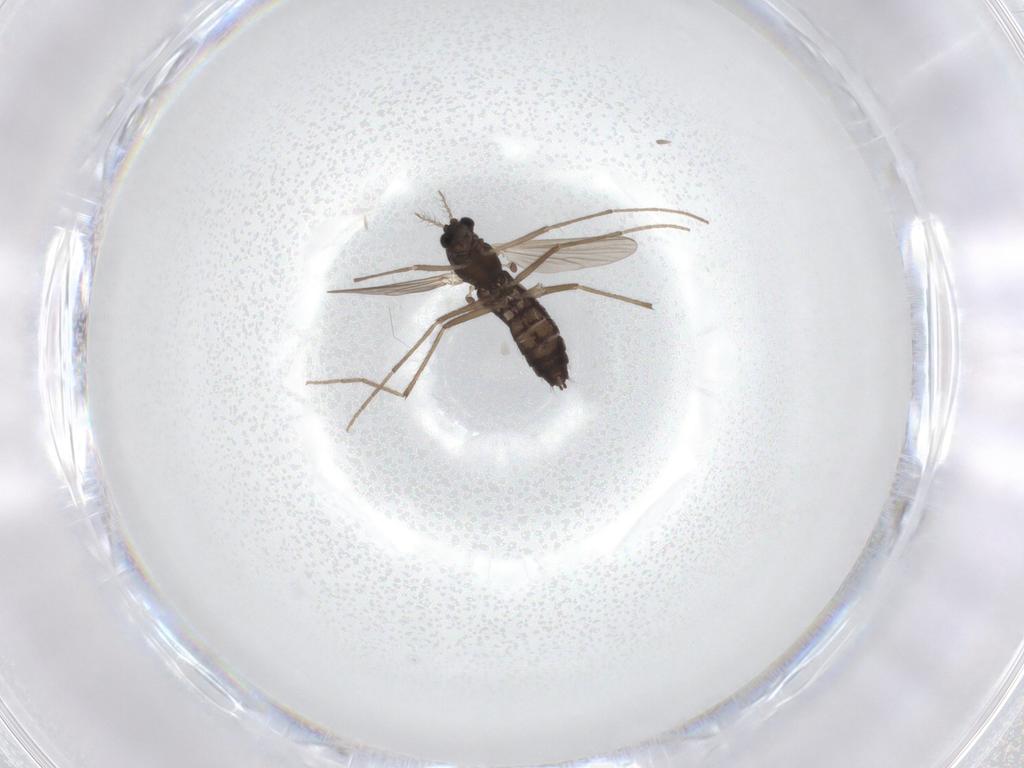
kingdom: Animalia
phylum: Arthropoda
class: Insecta
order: Diptera
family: Chironomidae
